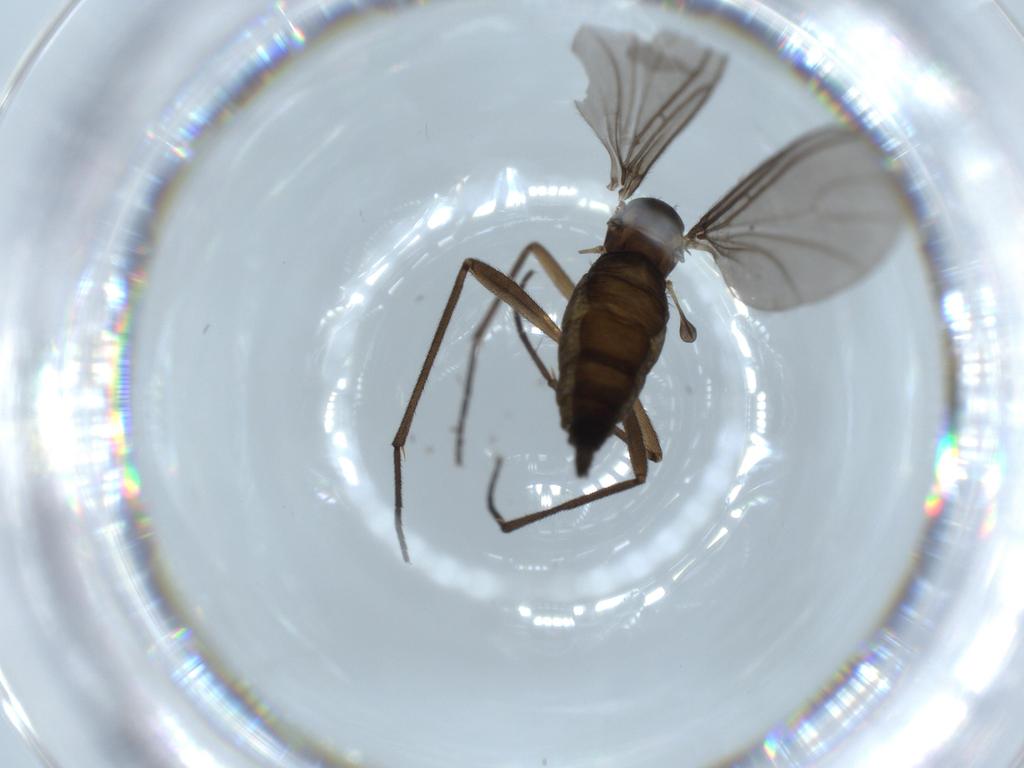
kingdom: Animalia
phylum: Arthropoda
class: Insecta
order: Diptera
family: Sciaridae
